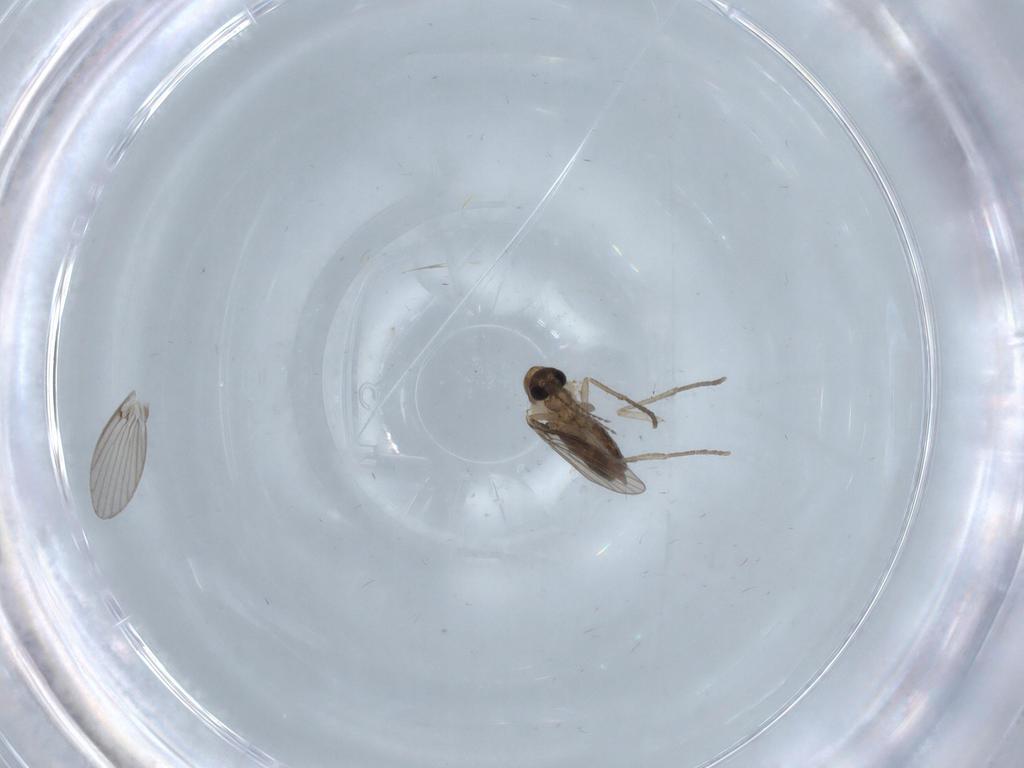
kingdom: Animalia
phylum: Arthropoda
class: Insecta
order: Diptera
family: Psychodidae
